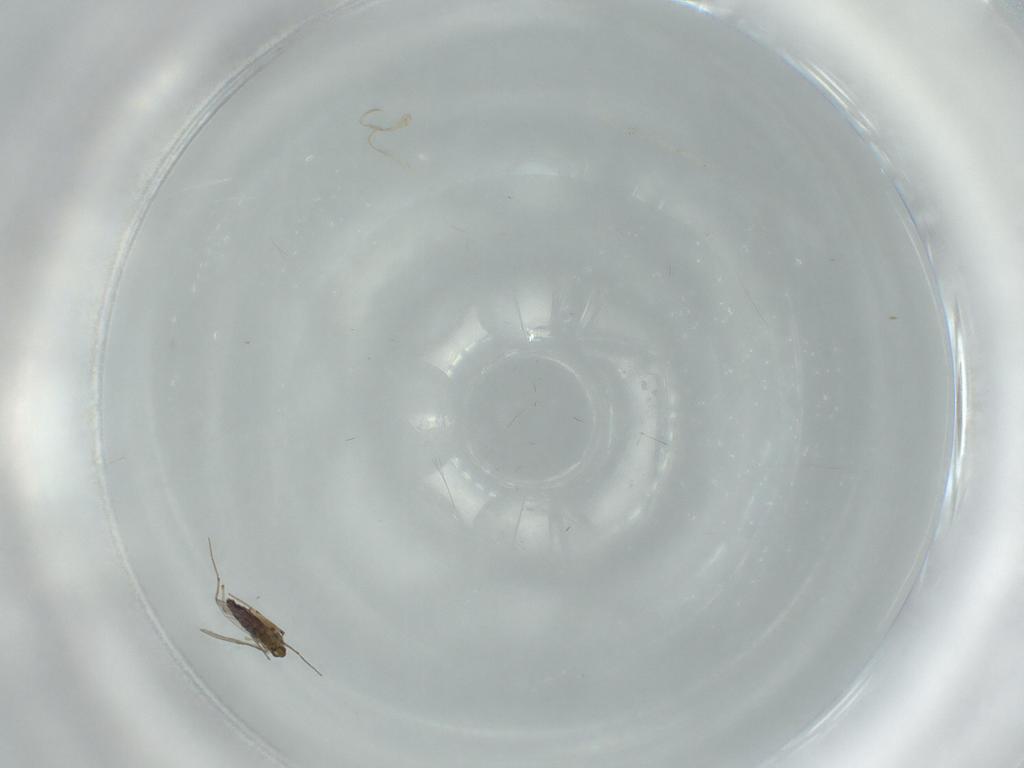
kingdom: Animalia
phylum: Arthropoda
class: Insecta
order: Diptera
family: Chironomidae
